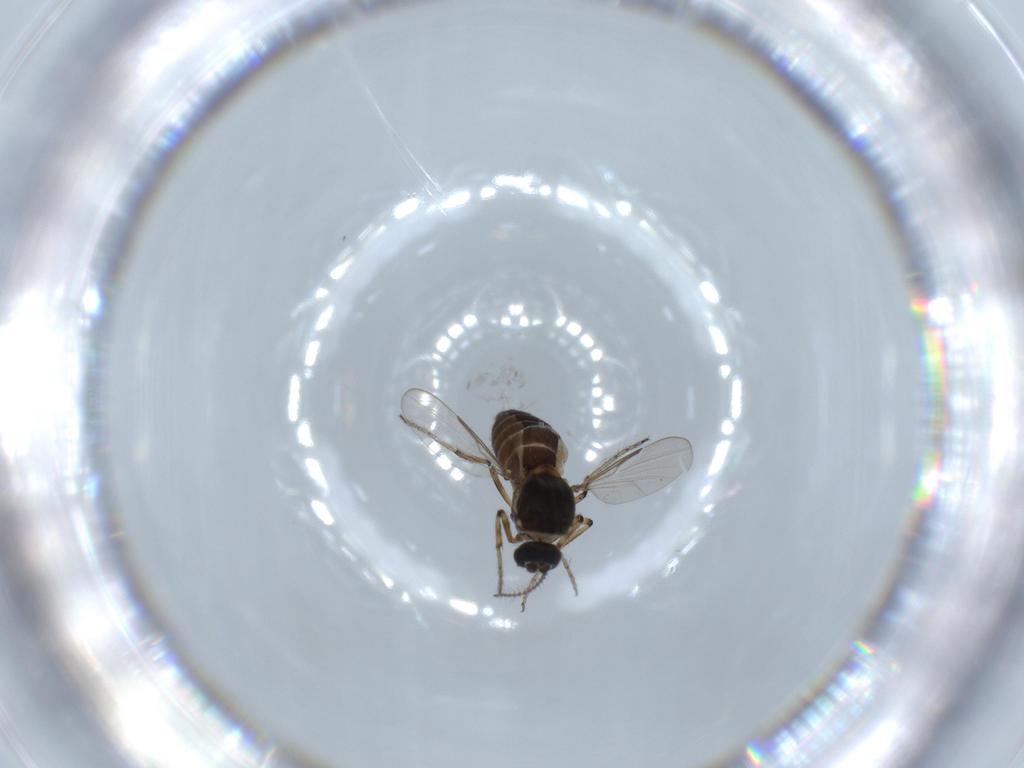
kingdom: Animalia
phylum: Arthropoda
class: Insecta
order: Diptera
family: Ceratopogonidae
